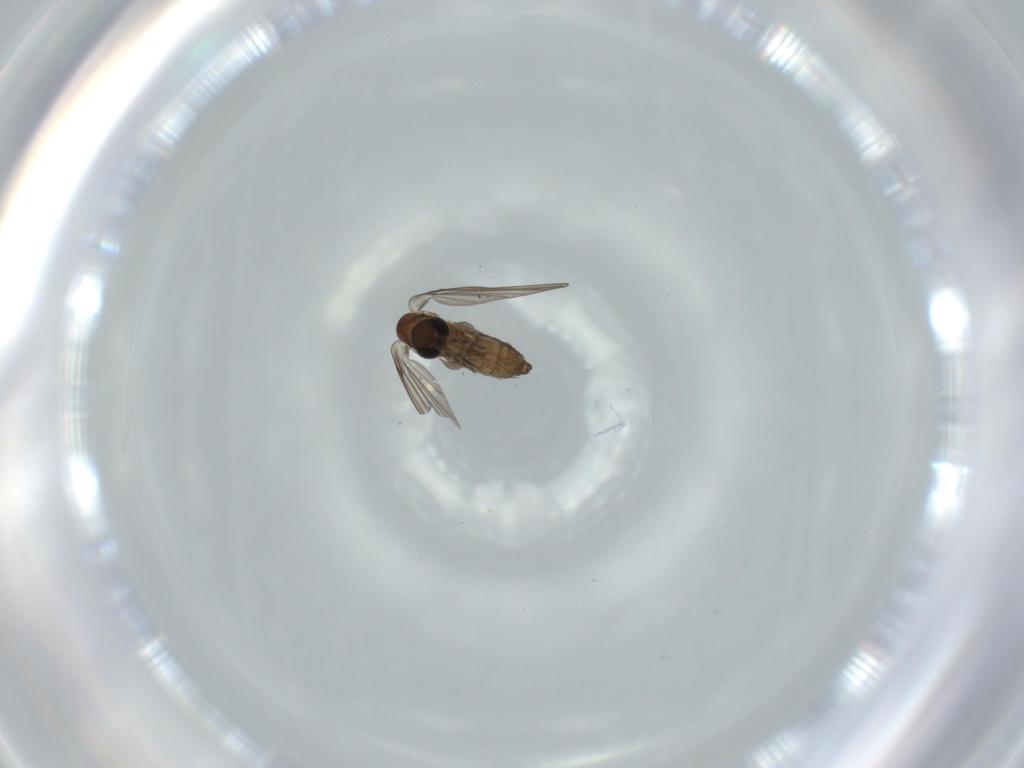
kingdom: Animalia
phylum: Arthropoda
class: Insecta
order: Diptera
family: Psychodidae
